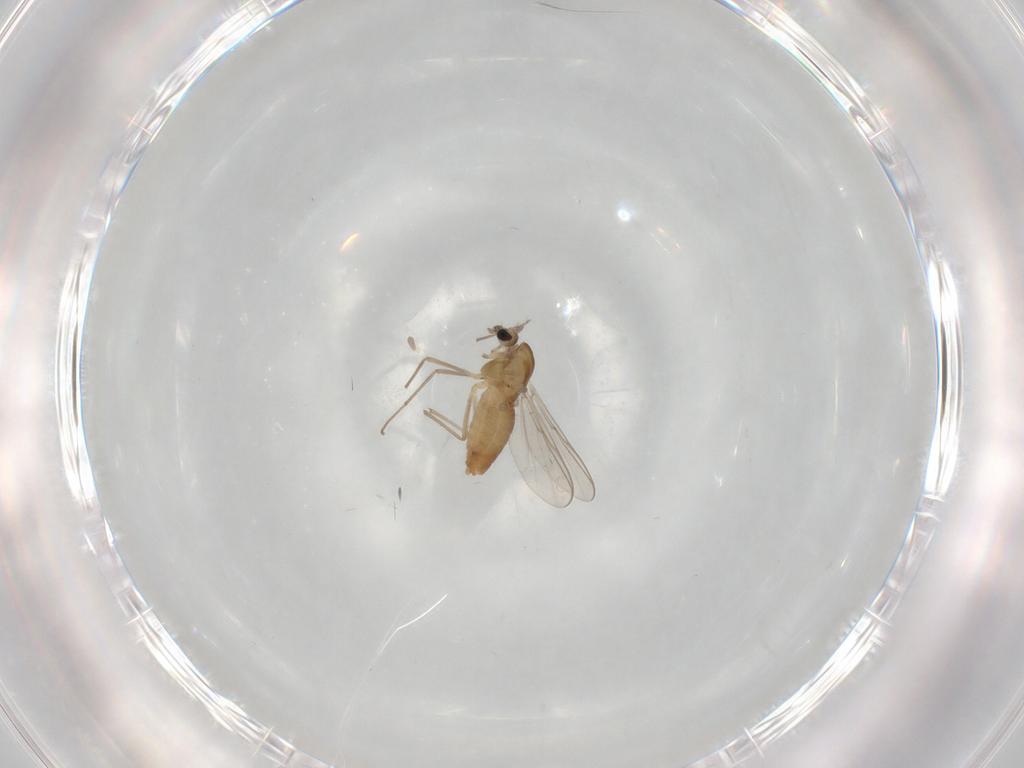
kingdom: Animalia
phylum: Arthropoda
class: Insecta
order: Diptera
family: Chironomidae
